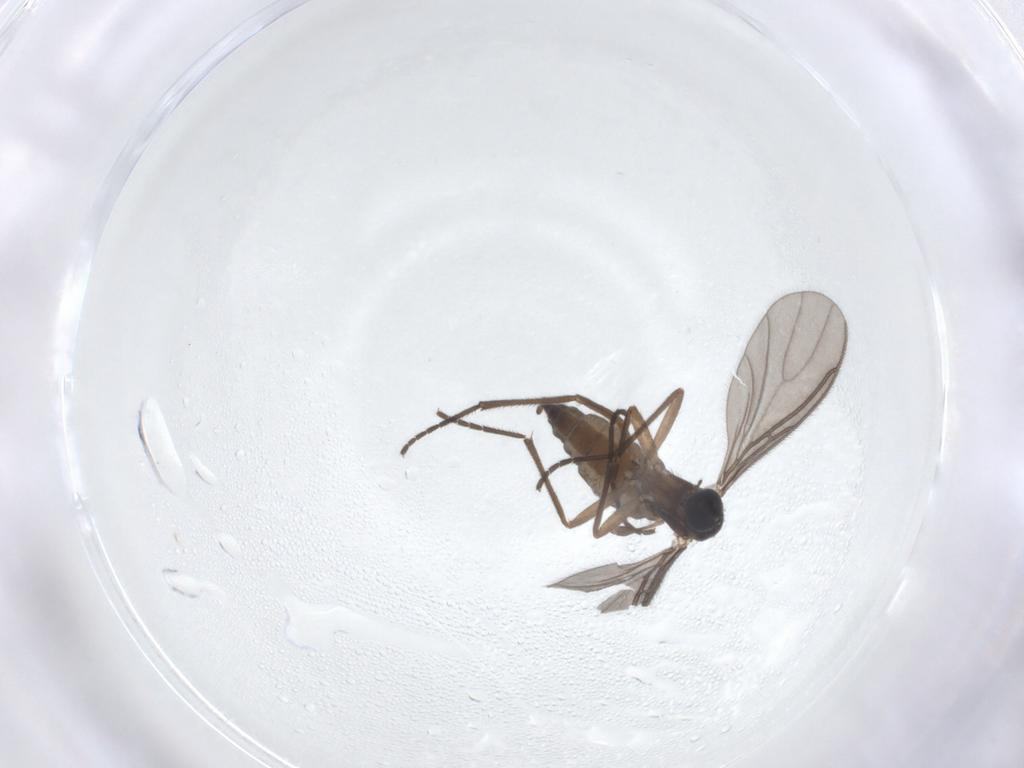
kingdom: Animalia
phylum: Arthropoda
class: Insecta
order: Diptera
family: Sciaridae
